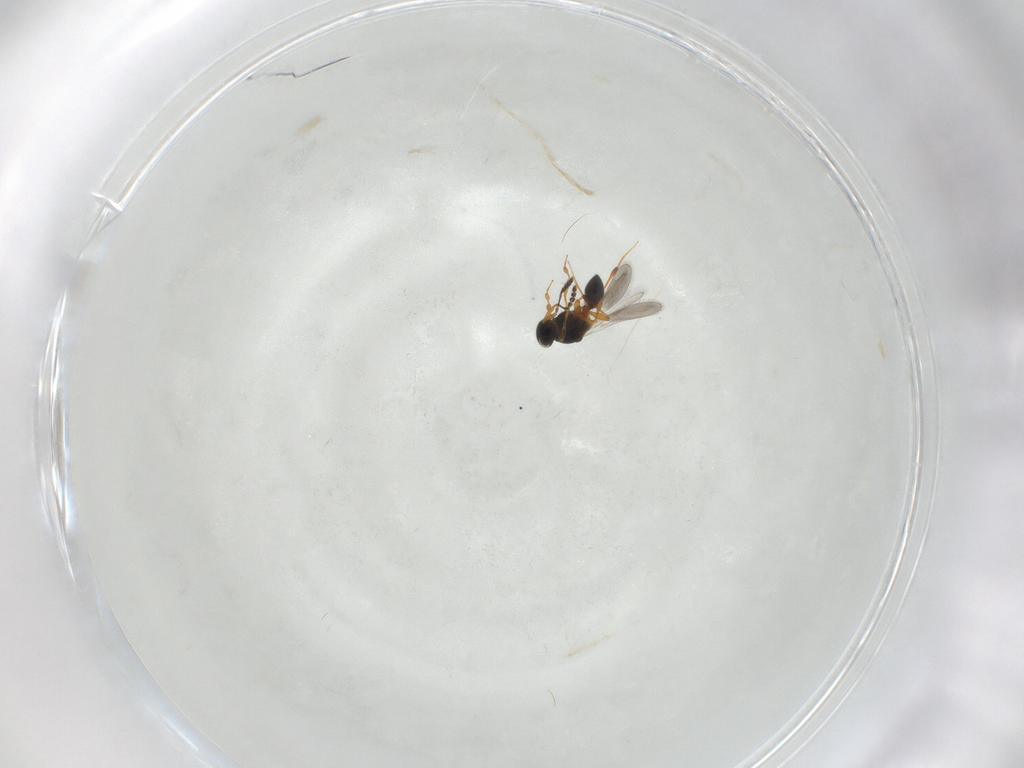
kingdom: Animalia
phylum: Arthropoda
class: Insecta
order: Hymenoptera
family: Platygastridae
